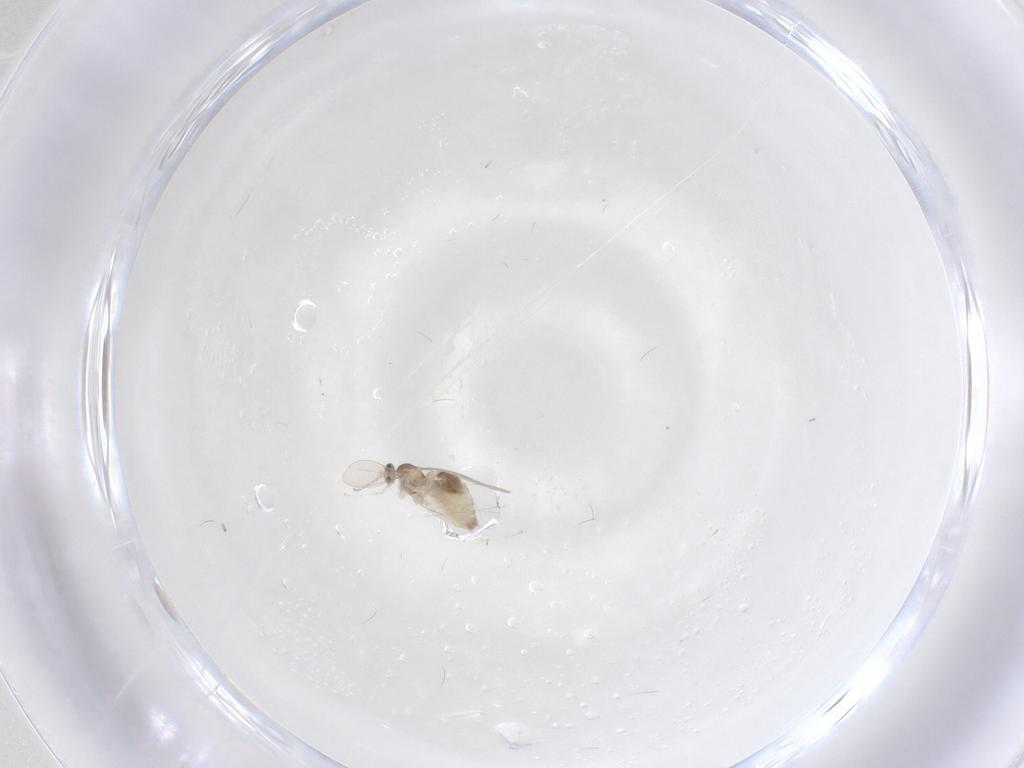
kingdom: Animalia
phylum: Arthropoda
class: Insecta
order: Diptera
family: Cecidomyiidae
